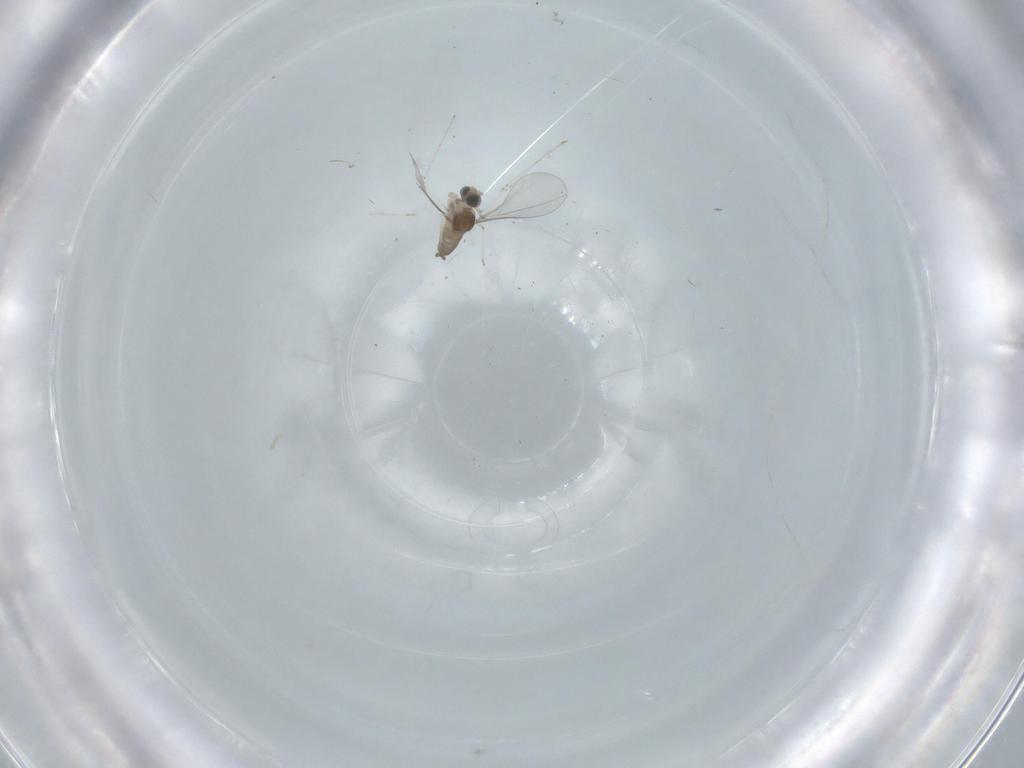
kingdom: Animalia
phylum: Arthropoda
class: Insecta
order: Diptera
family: Cecidomyiidae
